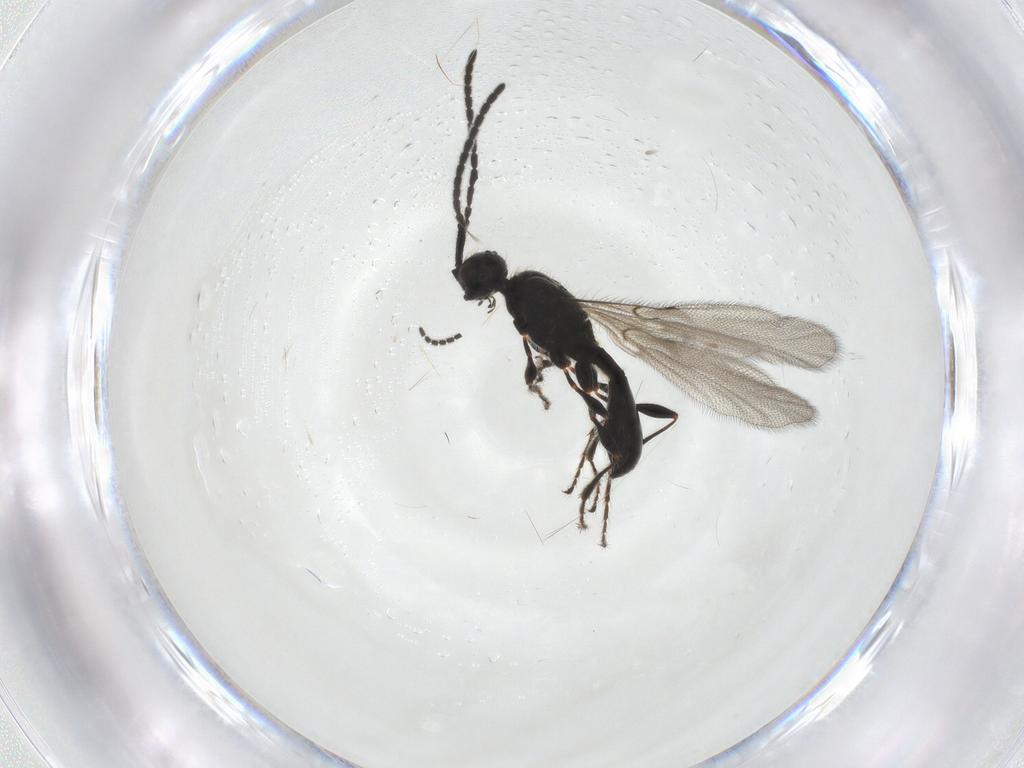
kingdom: Animalia
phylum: Arthropoda
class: Insecta
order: Hymenoptera
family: Diapriidae
